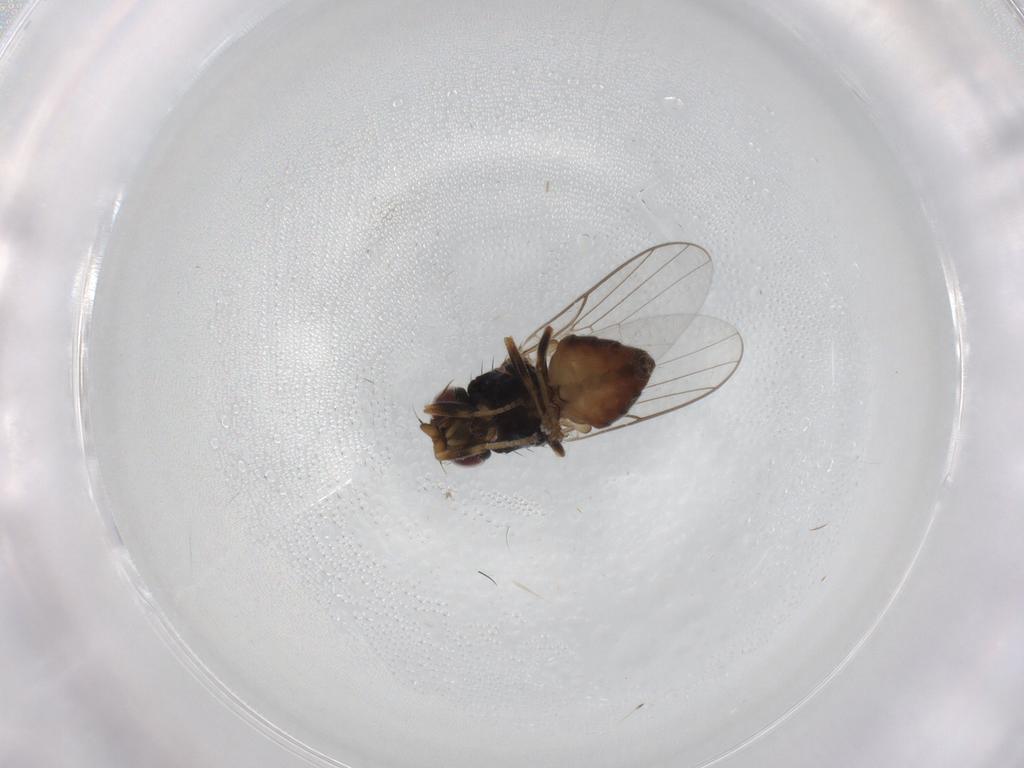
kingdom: Animalia
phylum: Arthropoda
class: Insecta
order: Diptera
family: Chloropidae
